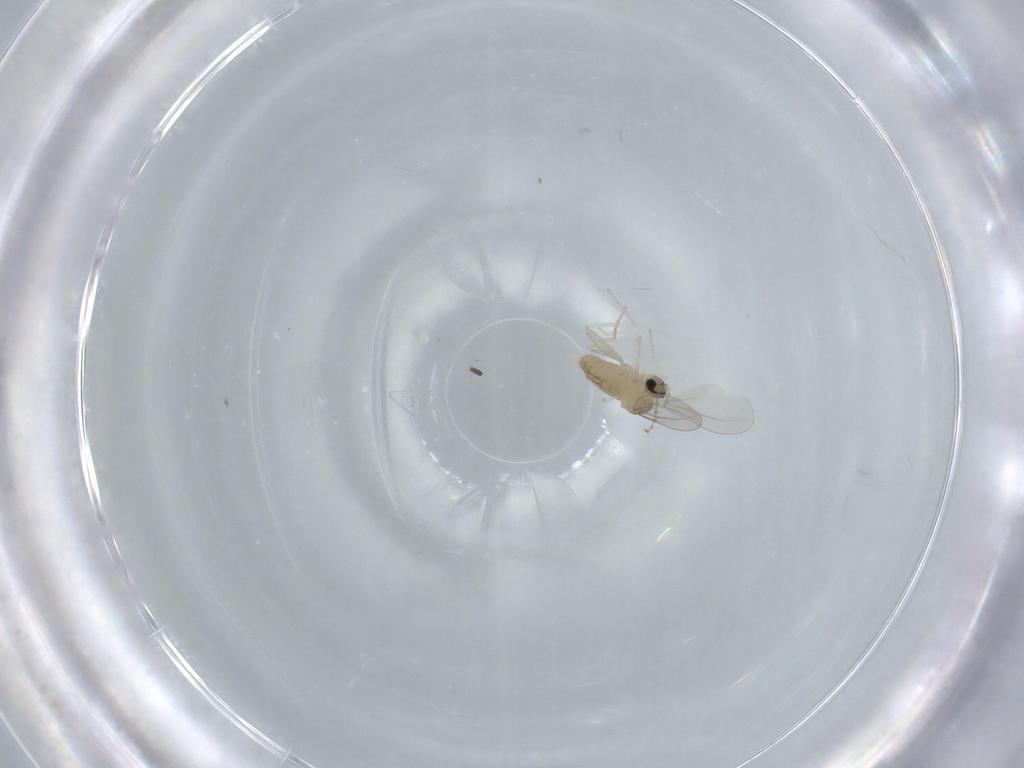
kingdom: Animalia
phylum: Arthropoda
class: Insecta
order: Diptera
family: Cecidomyiidae
